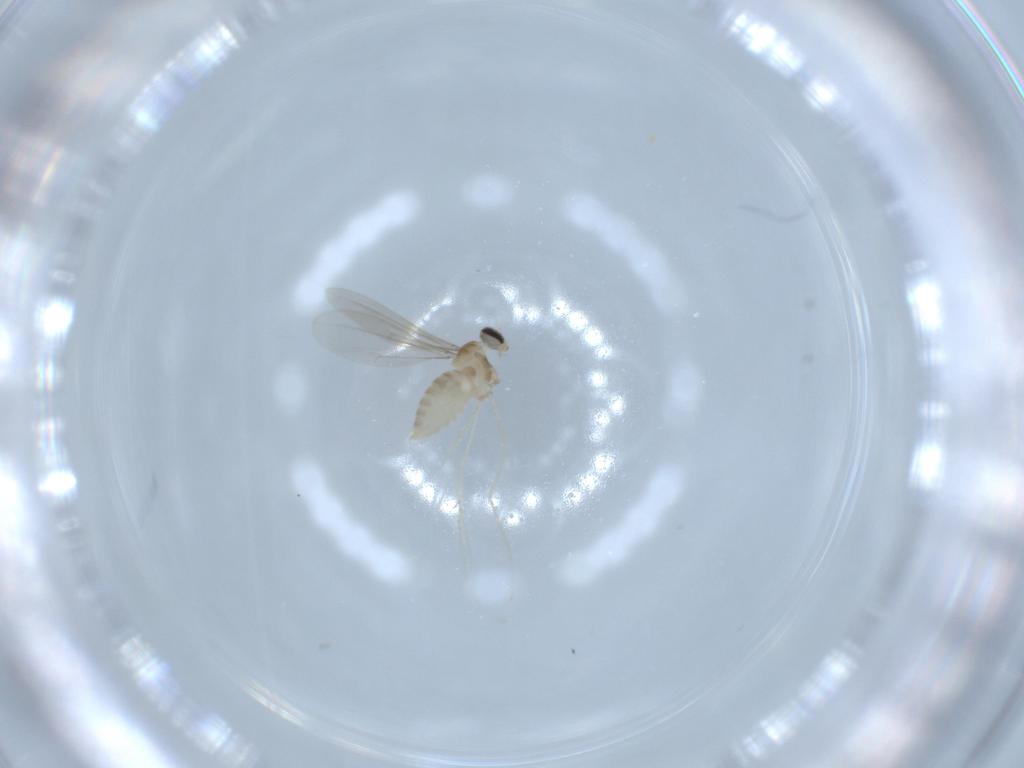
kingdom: Animalia
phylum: Arthropoda
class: Insecta
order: Diptera
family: Cecidomyiidae
